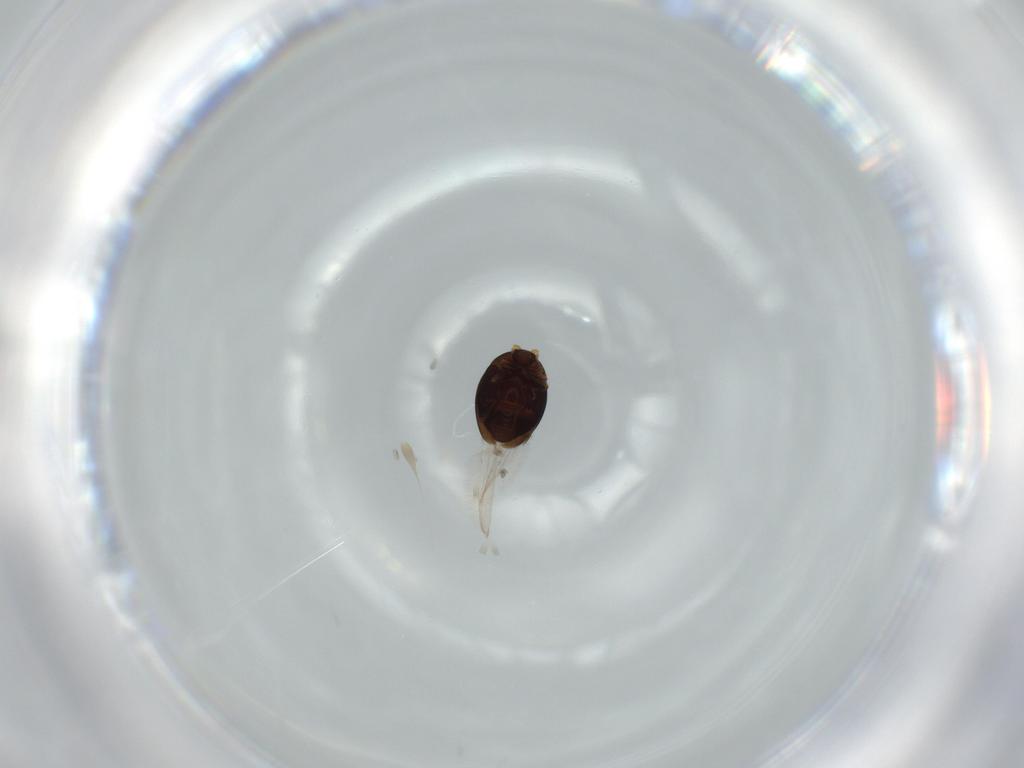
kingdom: Animalia
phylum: Arthropoda
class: Insecta
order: Coleoptera
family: Corylophidae
